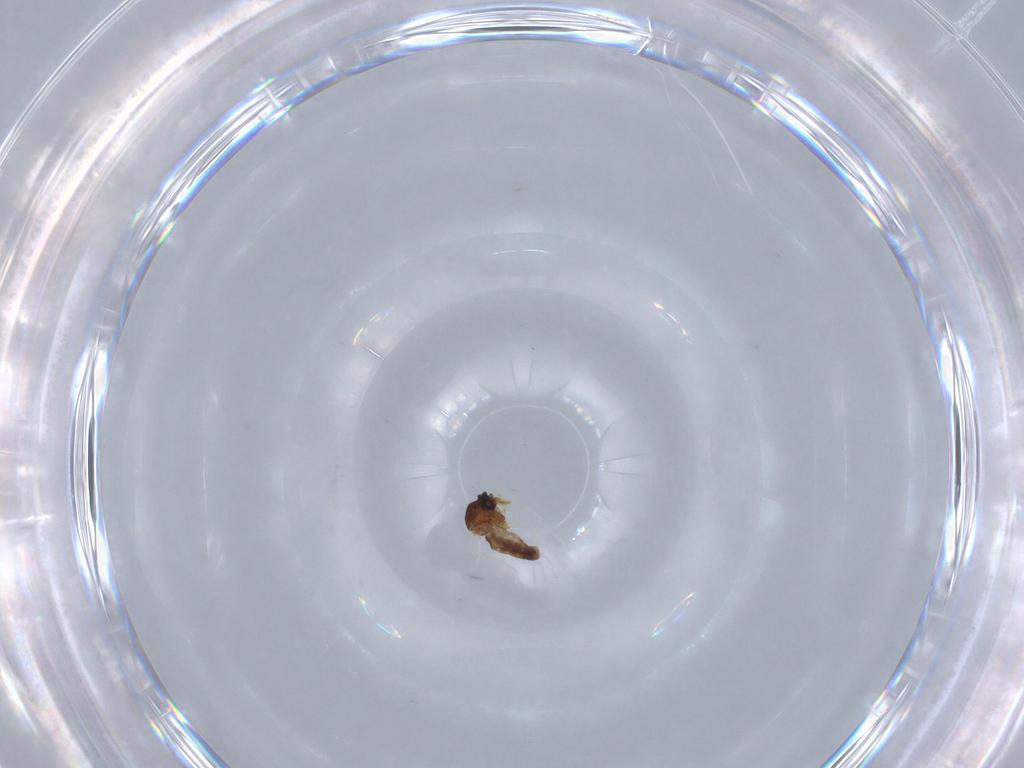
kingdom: Animalia
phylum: Arthropoda
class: Insecta
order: Diptera
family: Ceratopogonidae
